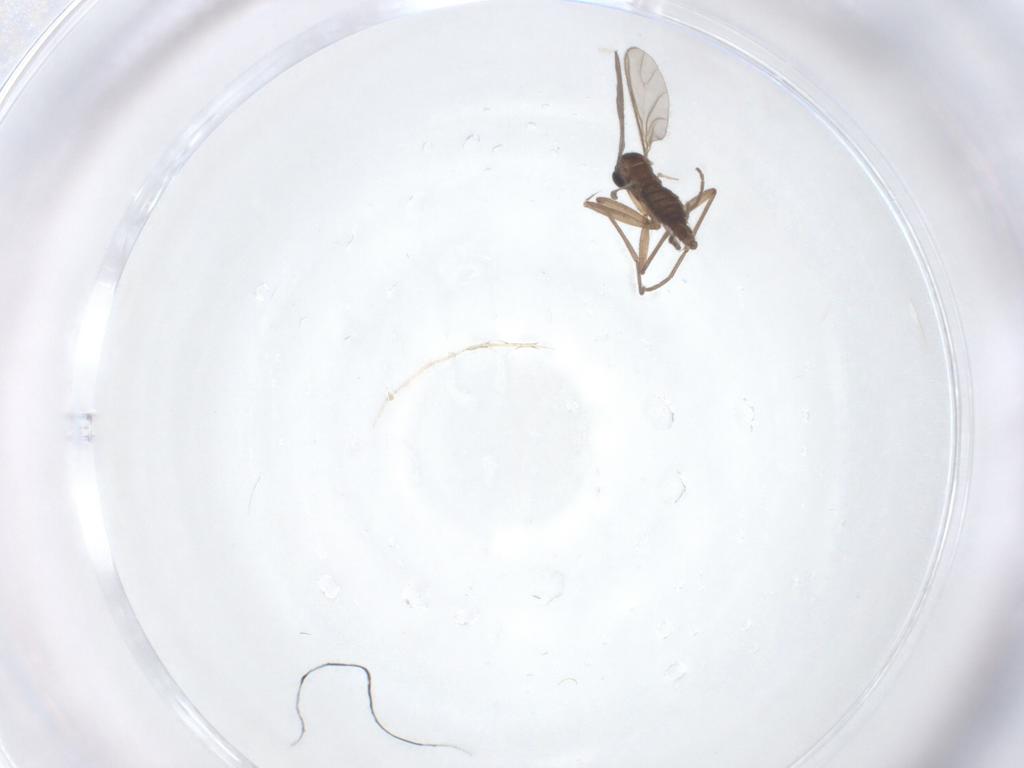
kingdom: Animalia
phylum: Arthropoda
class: Insecta
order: Diptera
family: Sciaridae
